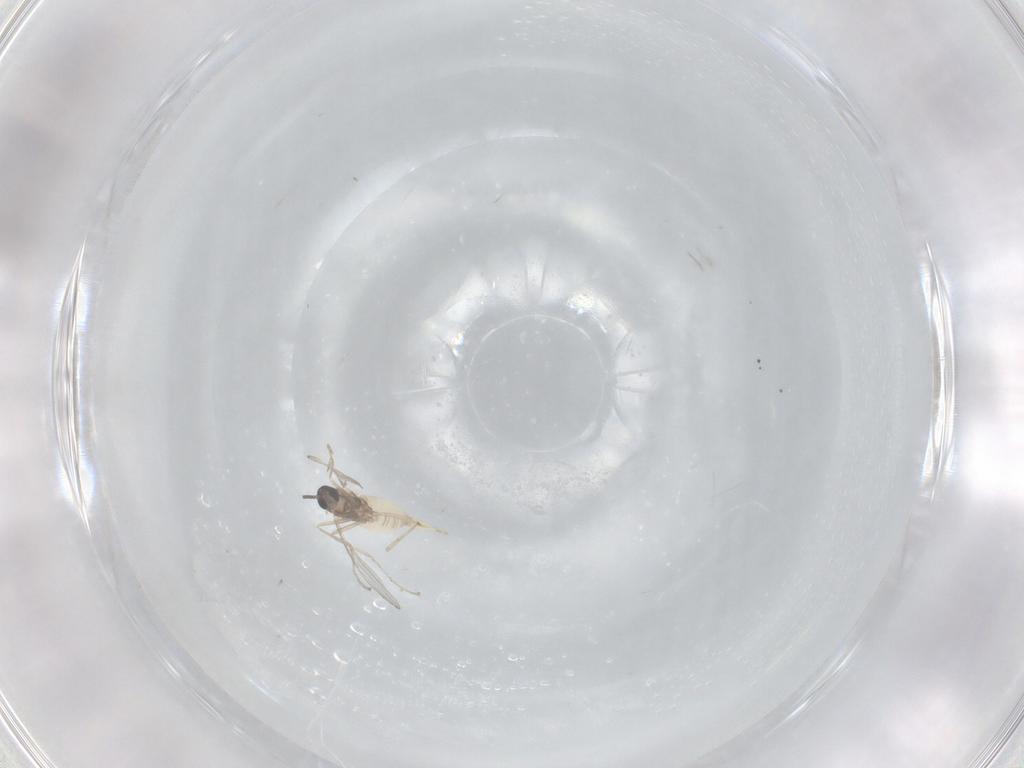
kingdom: Animalia
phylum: Arthropoda
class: Insecta
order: Diptera
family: Cecidomyiidae
